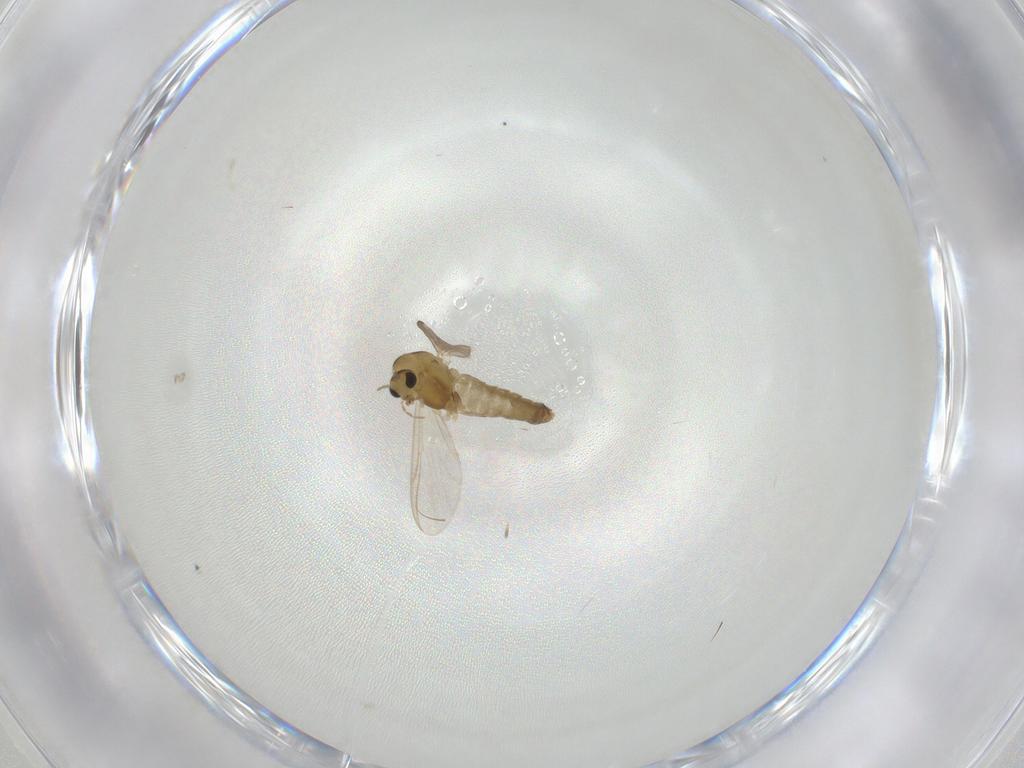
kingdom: Animalia
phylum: Arthropoda
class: Insecta
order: Diptera
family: Chironomidae
